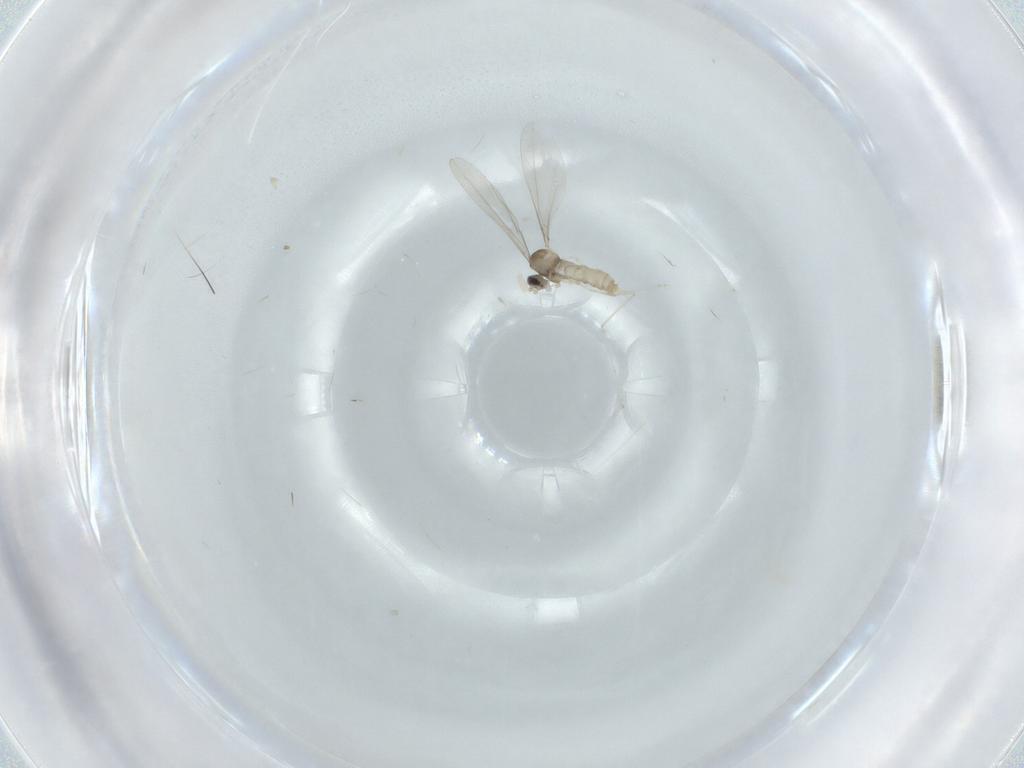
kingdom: Animalia
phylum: Arthropoda
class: Insecta
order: Diptera
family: Cecidomyiidae
